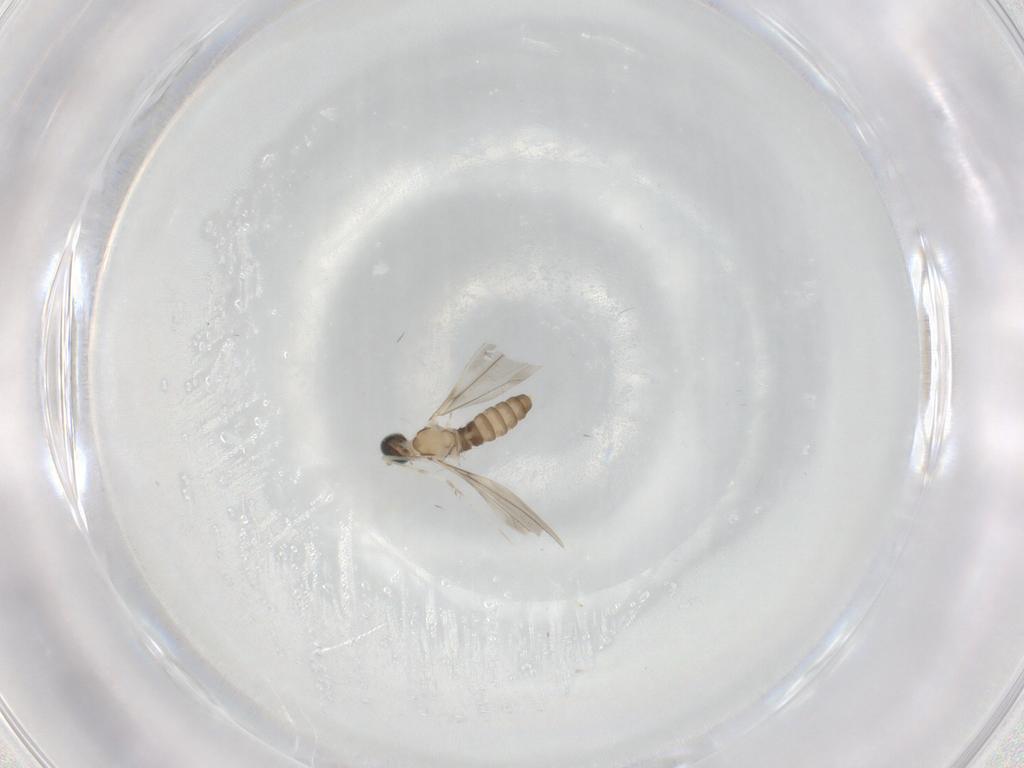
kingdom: Animalia
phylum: Arthropoda
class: Insecta
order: Diptera
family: Cecidomyiidae
